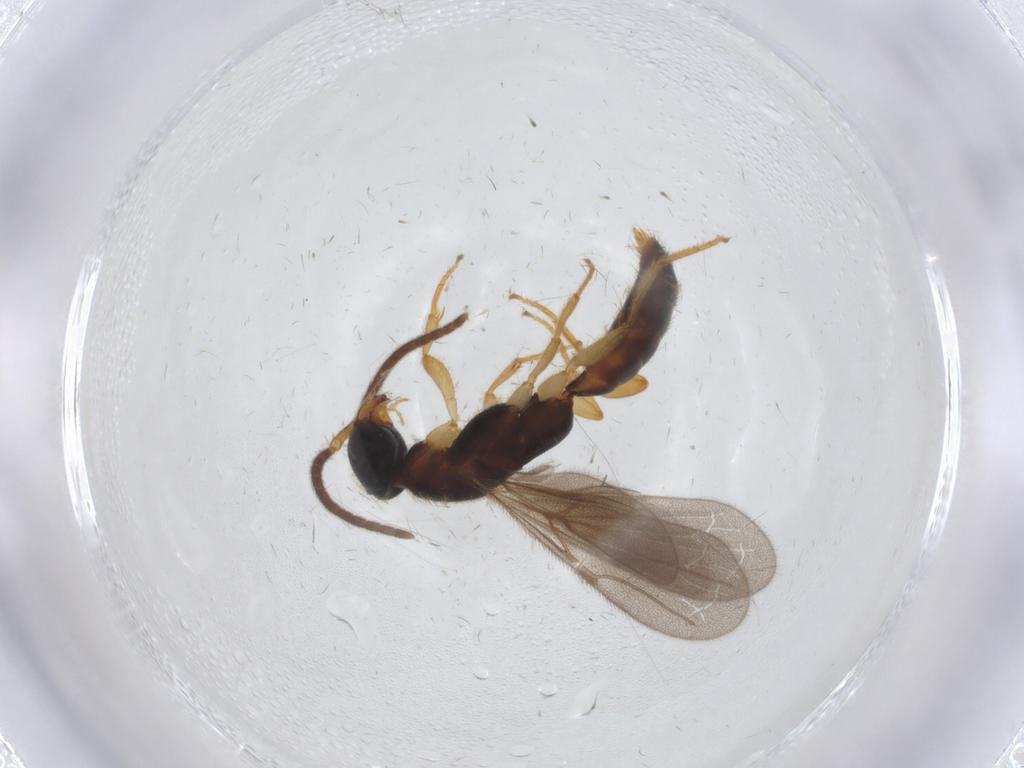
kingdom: Animalia
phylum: Arthropoda
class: Insecta
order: Hymenoptera
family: Bethylidae
